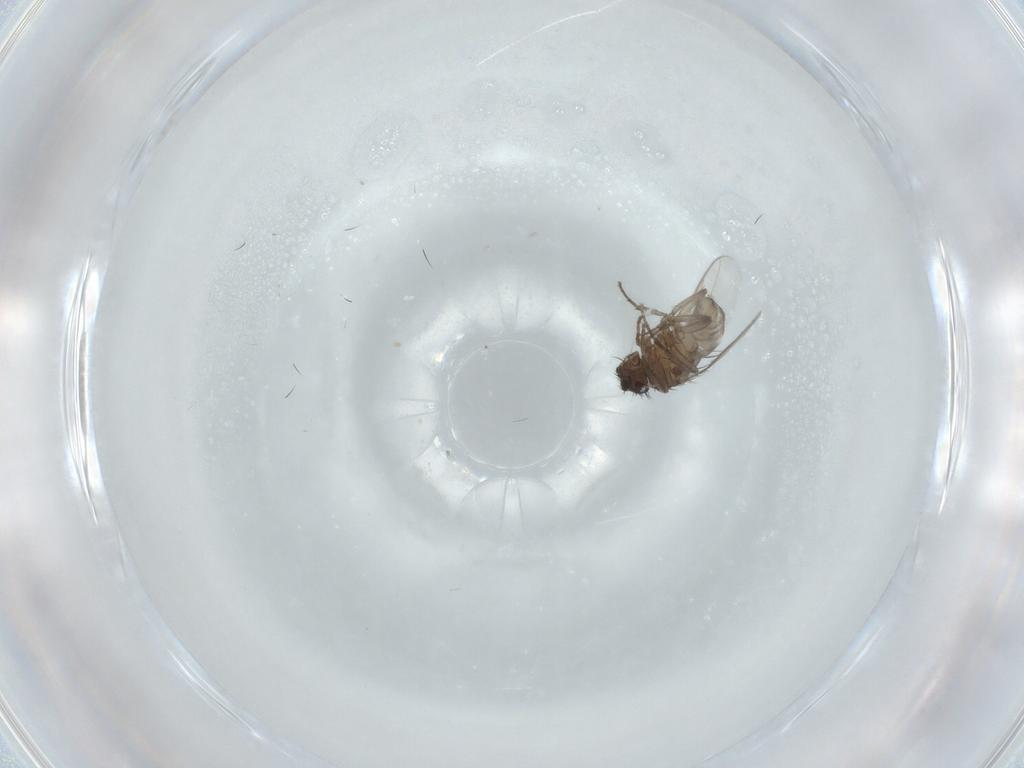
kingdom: Animalia
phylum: Arthropoda
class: Insecta
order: Diptera
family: Sphaeroceridae
